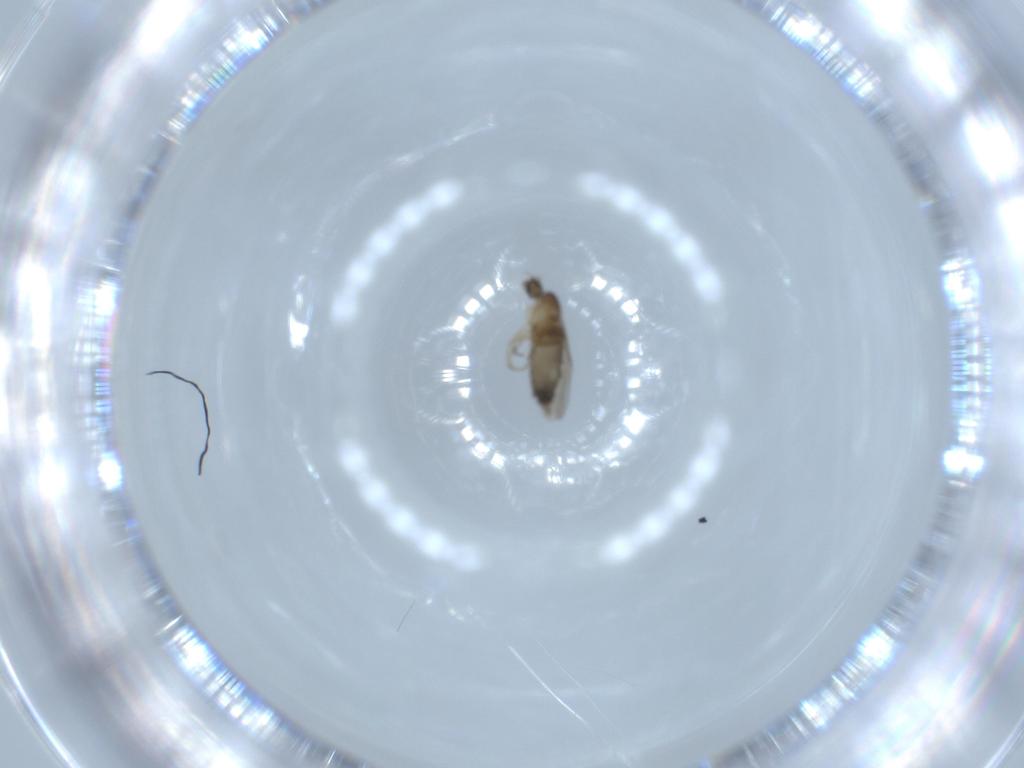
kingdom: Animalia
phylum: Arthropoda
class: Insecta
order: Diptera
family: Phoridae
